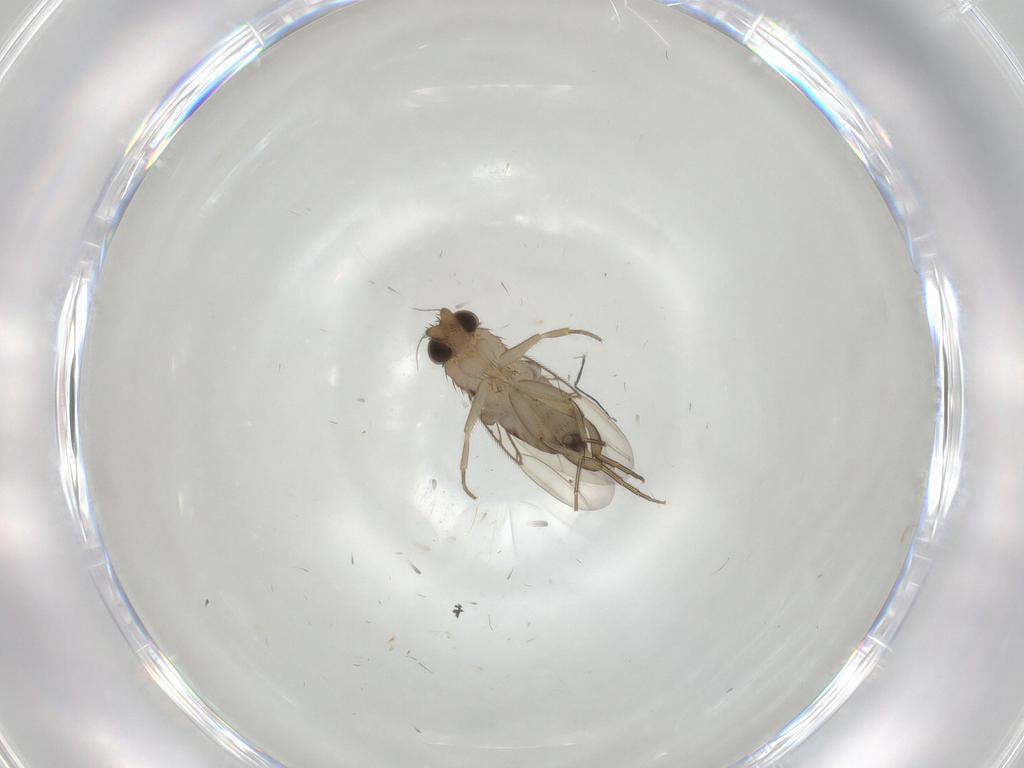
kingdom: Animalia
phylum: Arthropoda
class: Insecta
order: Diptera
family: Phoridae
